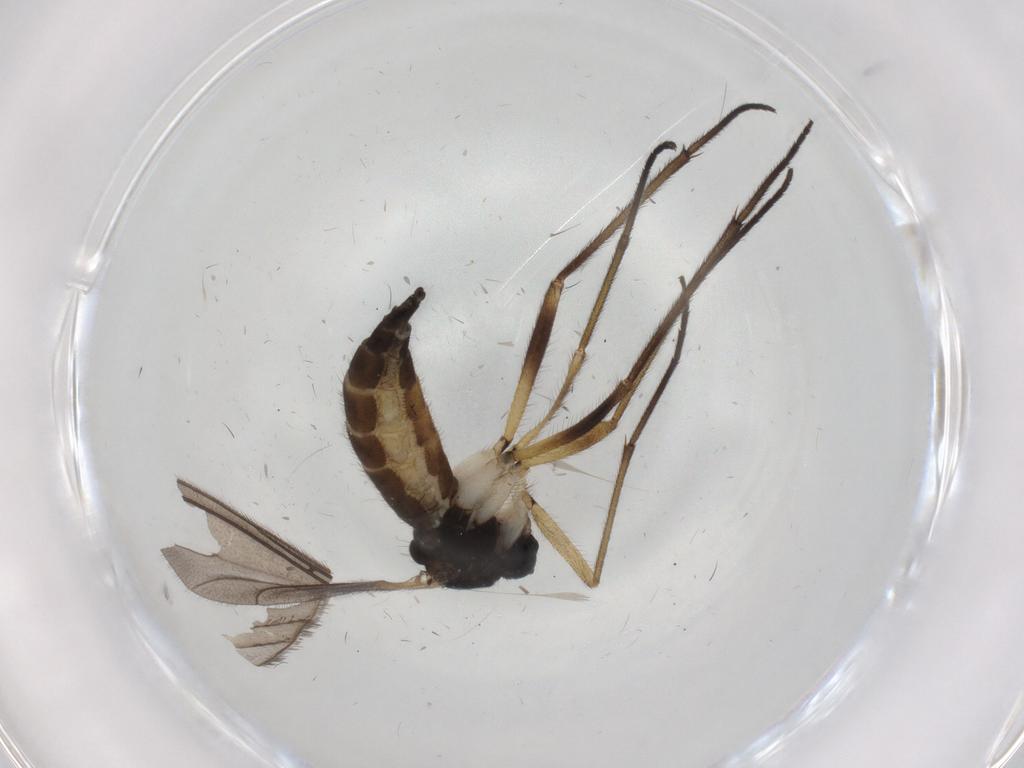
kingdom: Animalia
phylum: Arthropoda
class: Insecta
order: Diptera
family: Sciaridae
